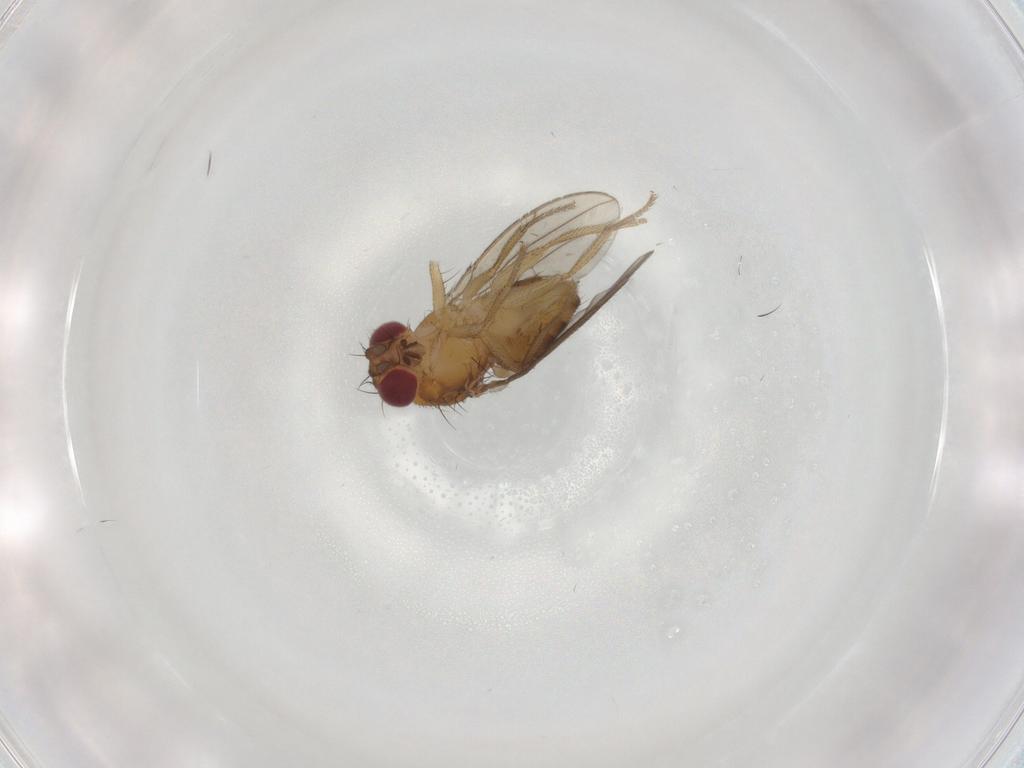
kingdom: Animalia
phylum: Arthropoda
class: Insecta
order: Diptera
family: Drosophilidae
